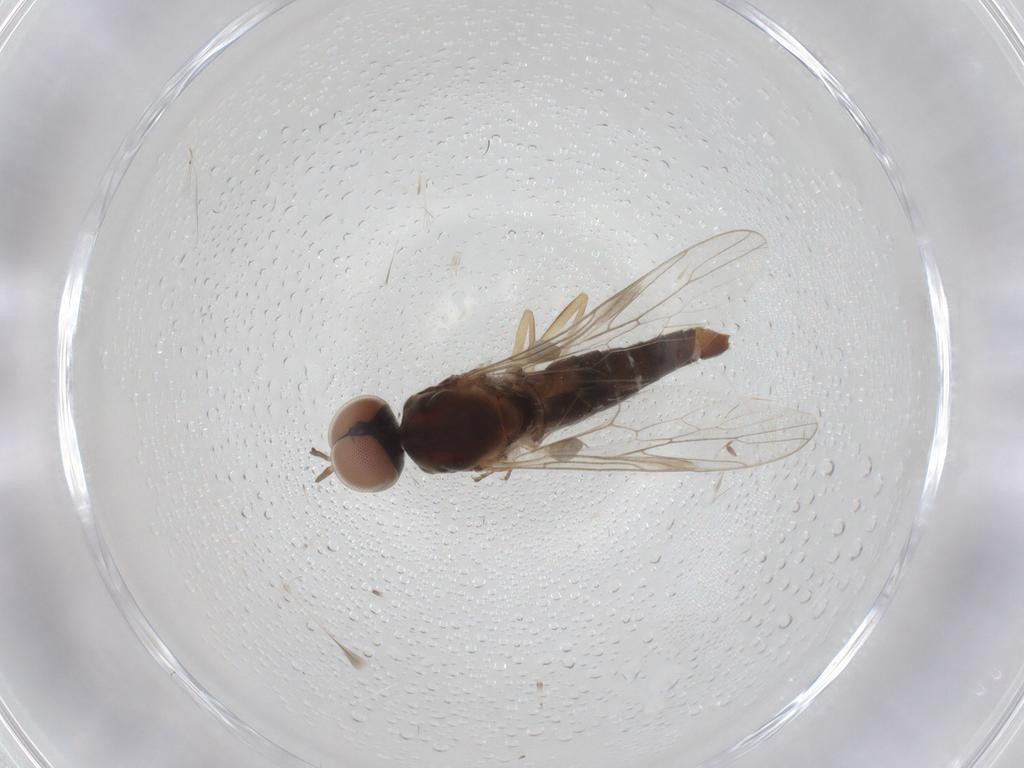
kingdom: Animalia
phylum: Arthropoda
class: Insecta
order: Diptera
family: Scenopinidae
